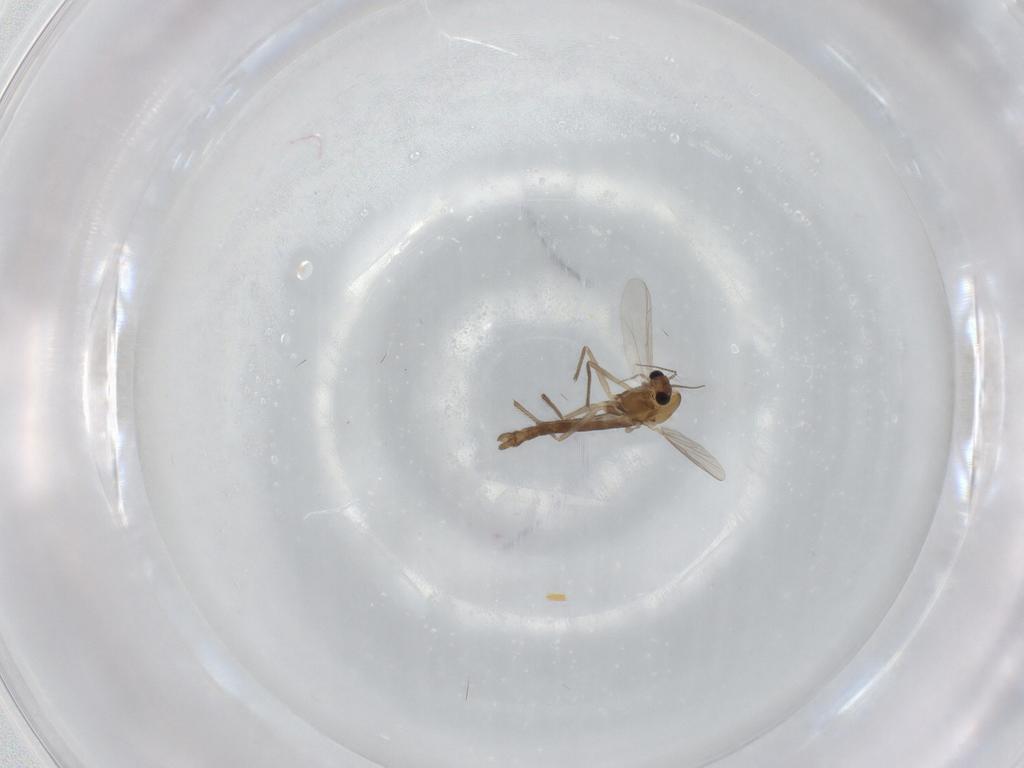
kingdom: Animalia
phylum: Arthropoda
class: Insecta
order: Diptera
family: Chironomidae
